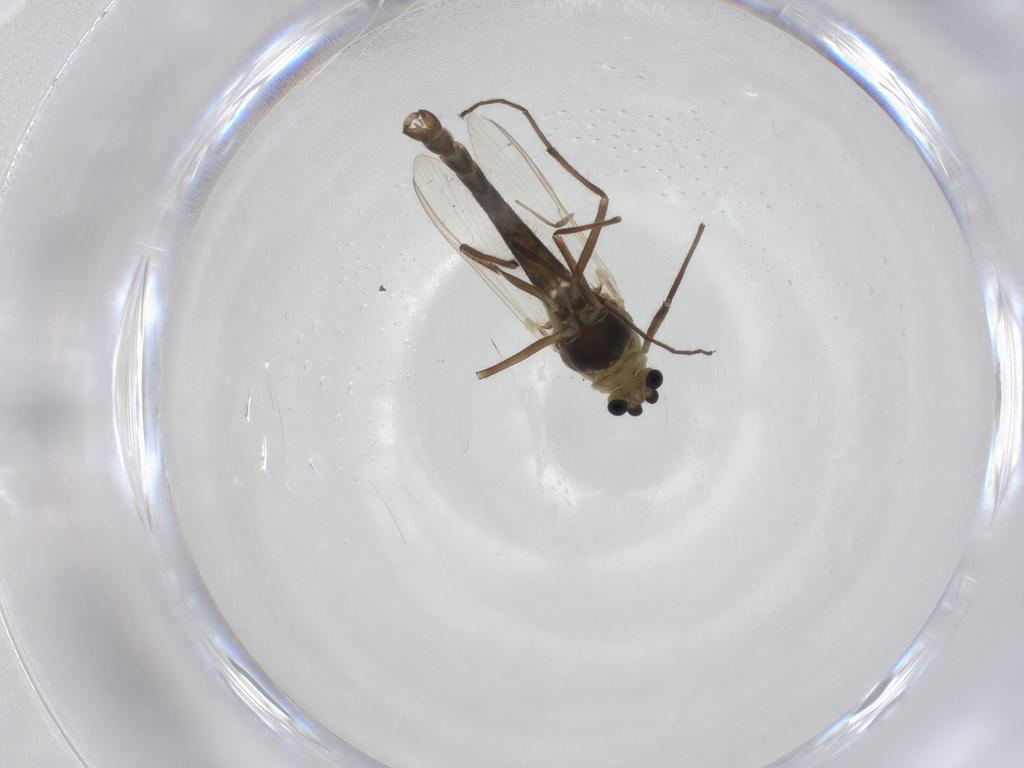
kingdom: Animalia
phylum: Arthropoda
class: Insecta
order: Diptera
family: Chironomidae
